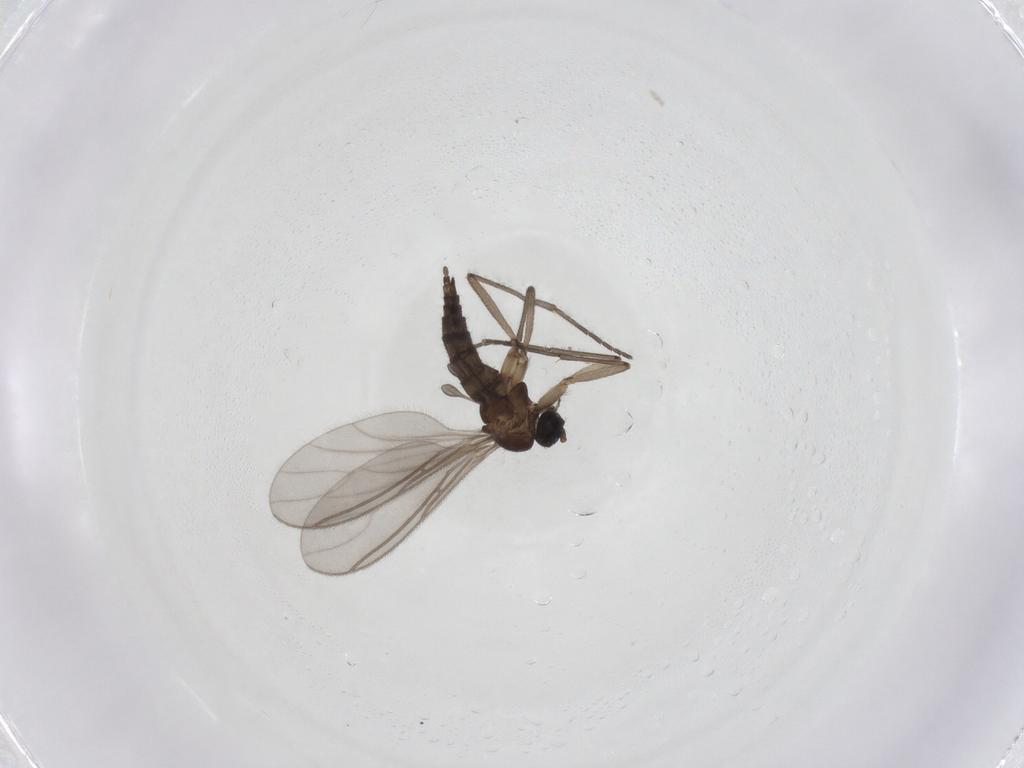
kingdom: Animalia
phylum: Arthropoda
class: Insecta
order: Diptera
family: Sciaridae
